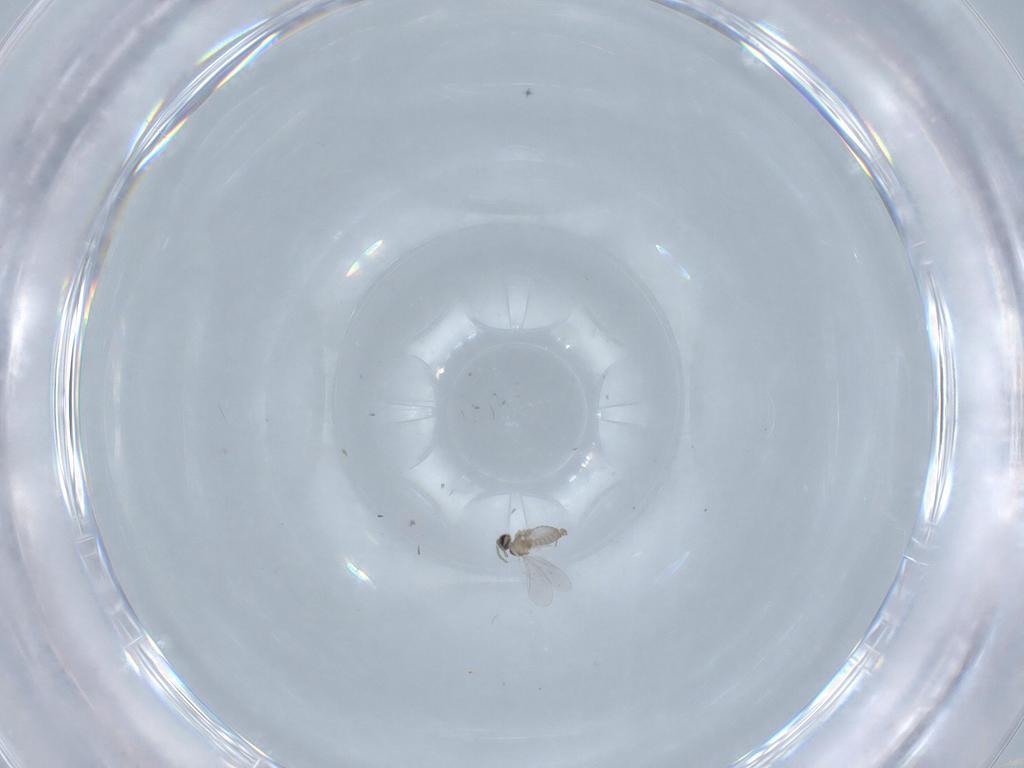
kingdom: Animalia
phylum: Arthropoda
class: Insecta
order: Diptera
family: Cecidomyiidae
